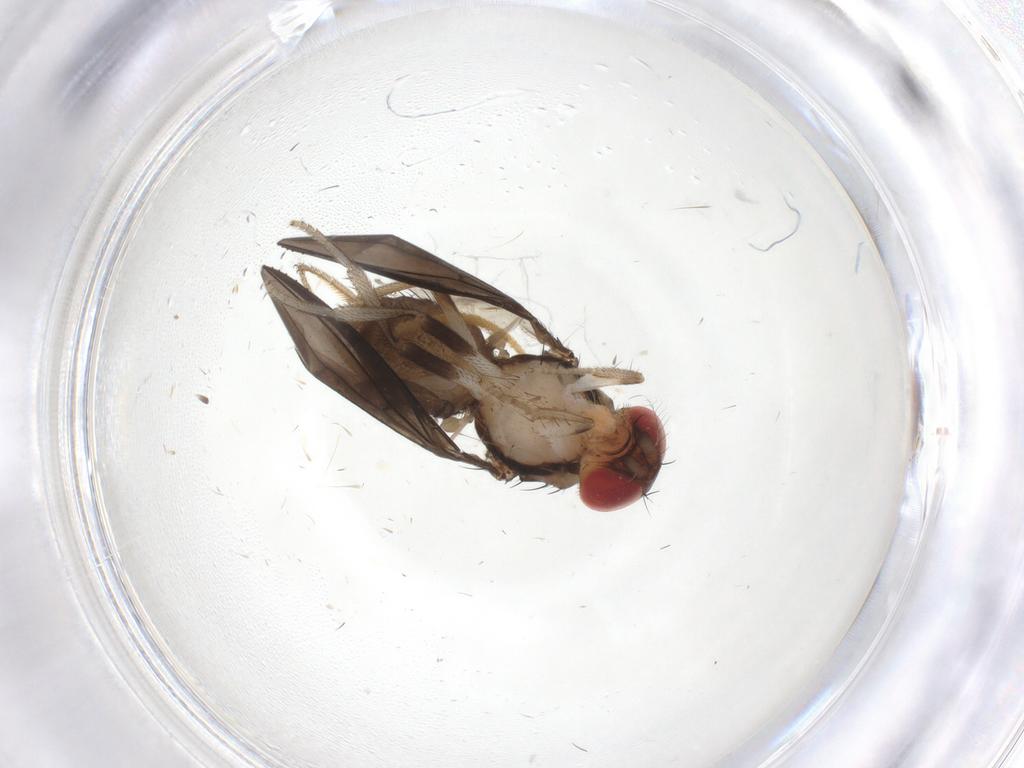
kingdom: Animalia
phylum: Arthropoda
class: Insecta
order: Diptera
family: Drosophilidae
